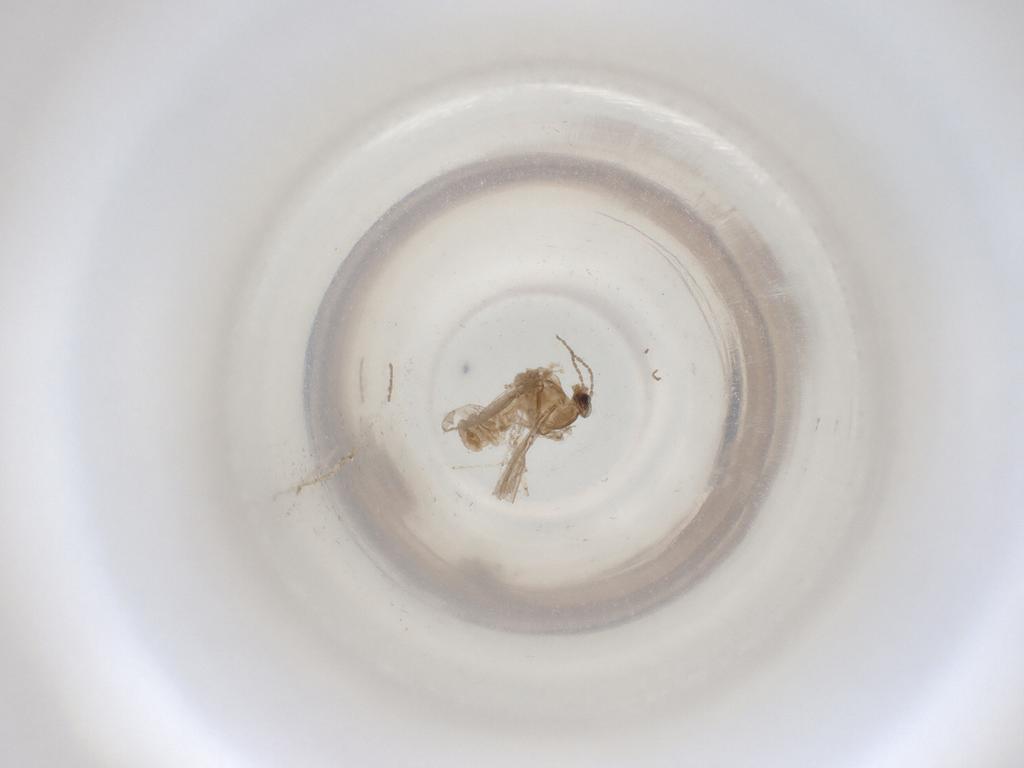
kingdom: Animalia
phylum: Arthropoda
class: Insecta
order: Diptera
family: Cecidomyiidae
